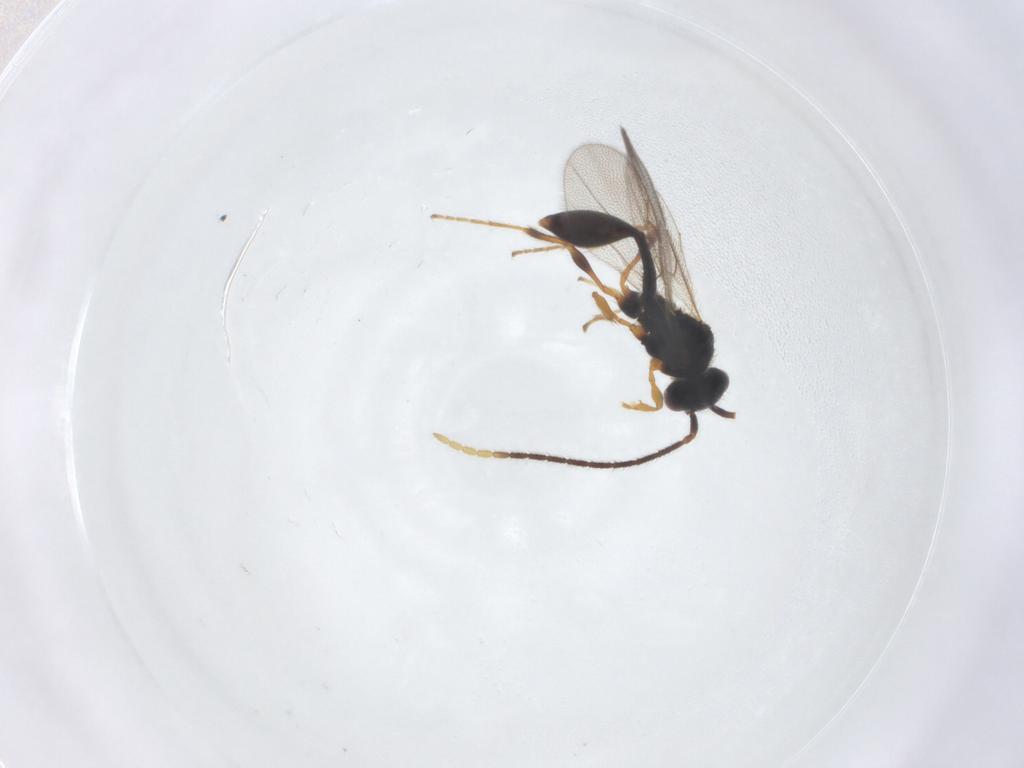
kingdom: Animalia
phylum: Arthropoda
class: Insecta
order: Hymenoptera
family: Diapriidae
